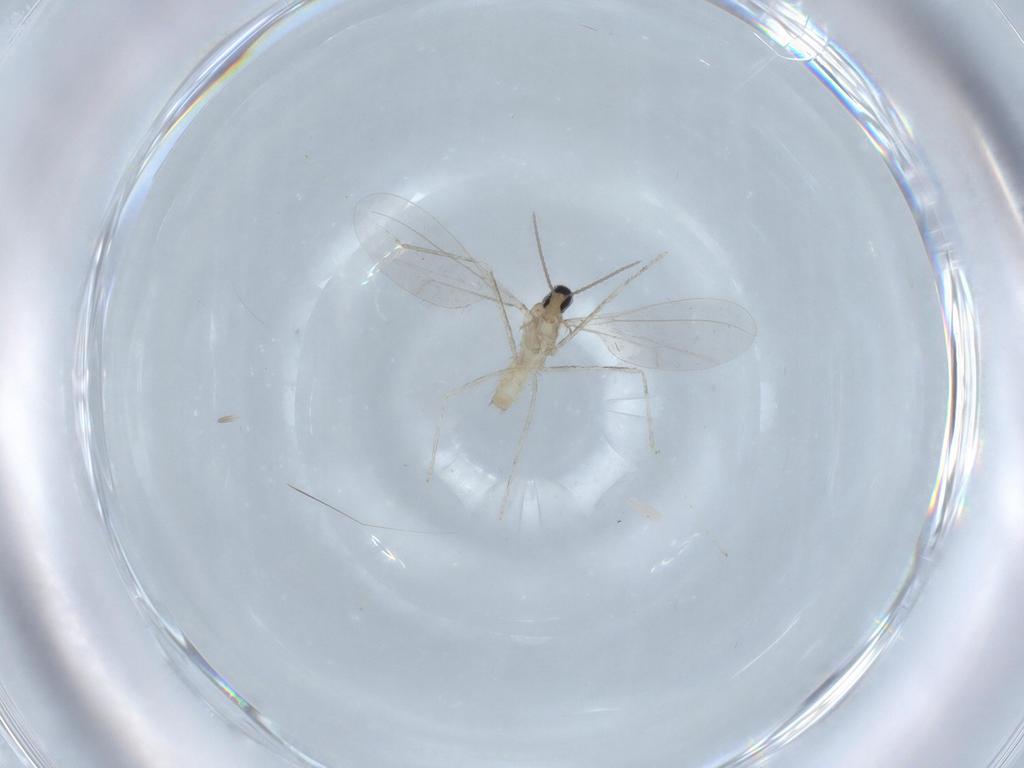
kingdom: Animalia
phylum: Arthropoda
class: Insecta
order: Diptera
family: Cecidomyiidae
